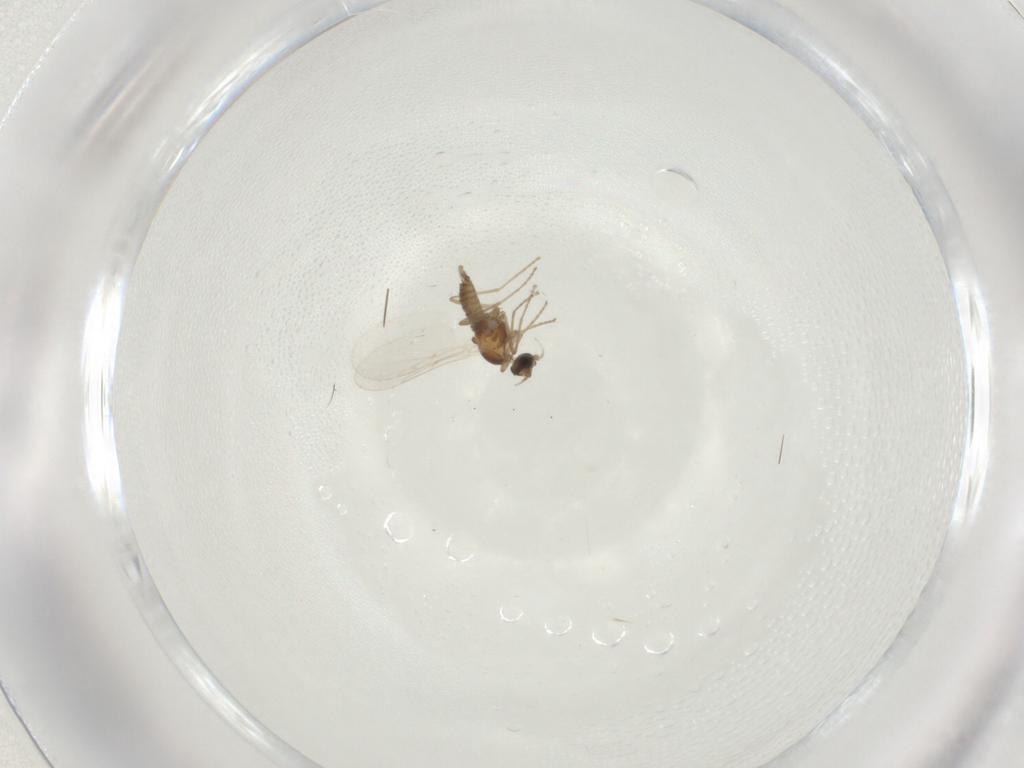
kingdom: Animalia
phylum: Arthropoda
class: Insecta
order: Diptera
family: Cecidomyiidae
